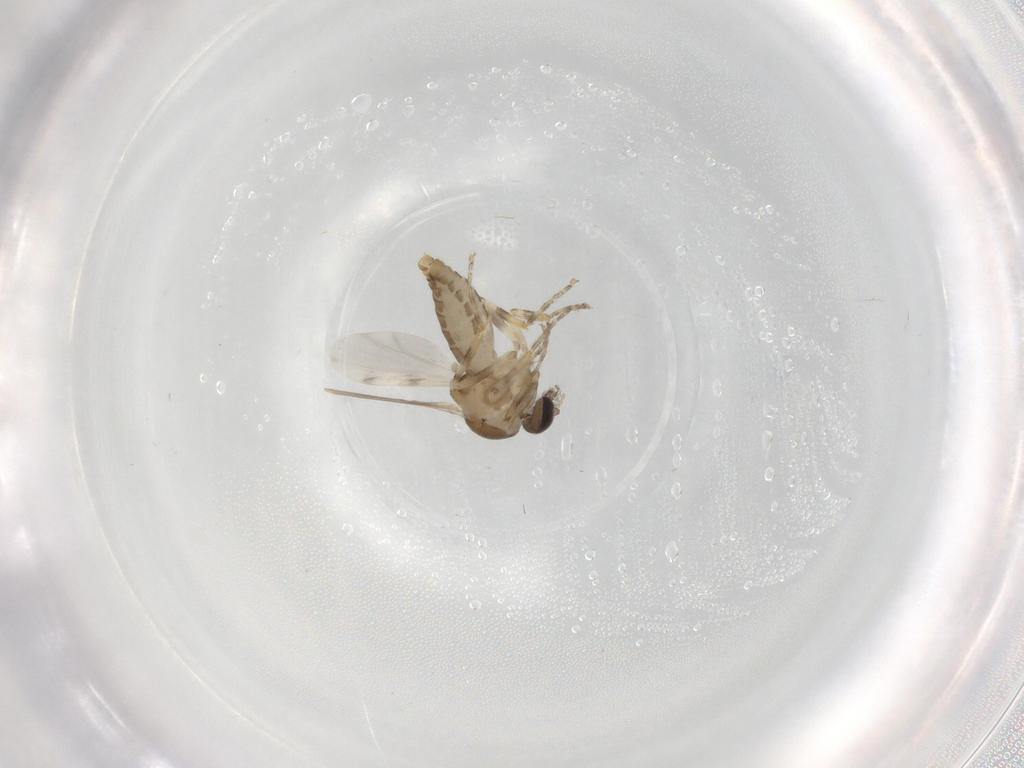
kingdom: Animalia
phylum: Arthropoda
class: Insecta
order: Diptera
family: Ceratopogonidae
